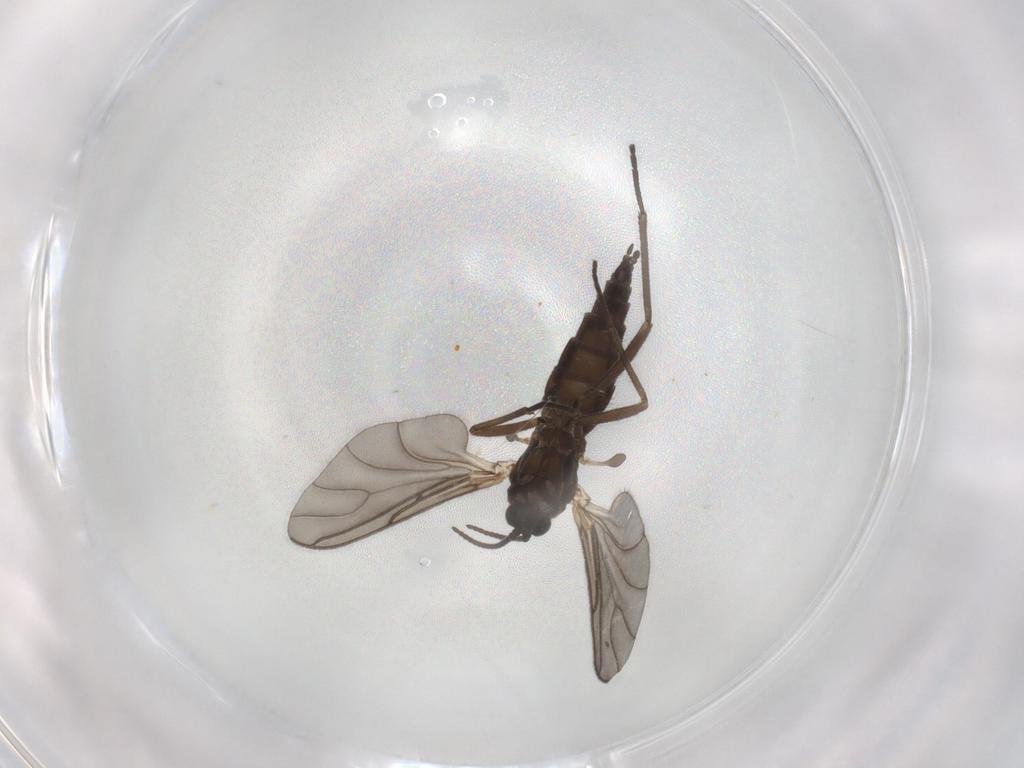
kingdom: Animalia
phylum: Arthropoda
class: Insecta
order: Diptera
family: Sciaridae
